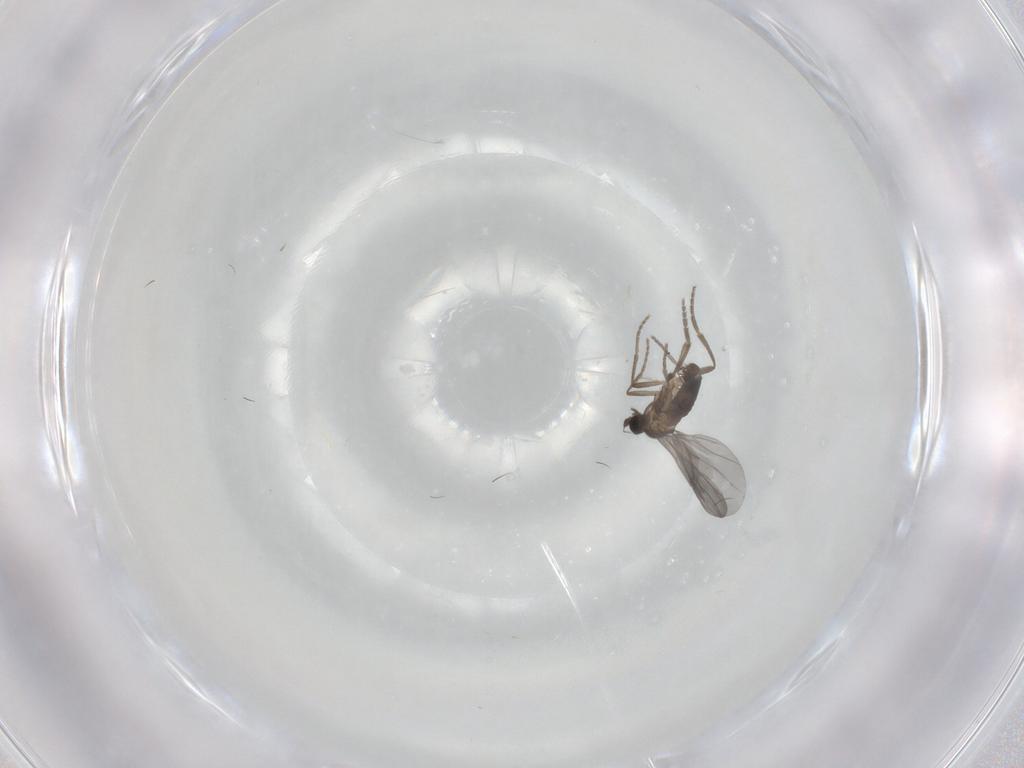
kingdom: Animalia
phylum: Arthropoda
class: Insecta
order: Diptera
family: Phoridae
